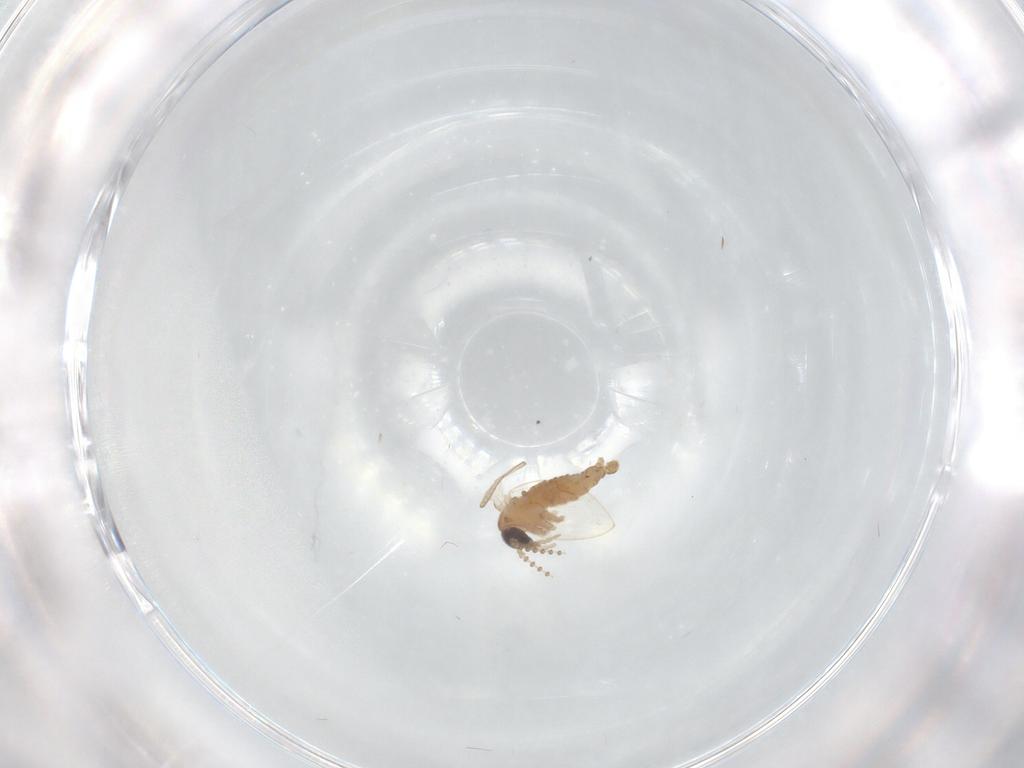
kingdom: Animalia
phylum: Arthropoda
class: Insecta
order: Diptera
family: Psychodidae
